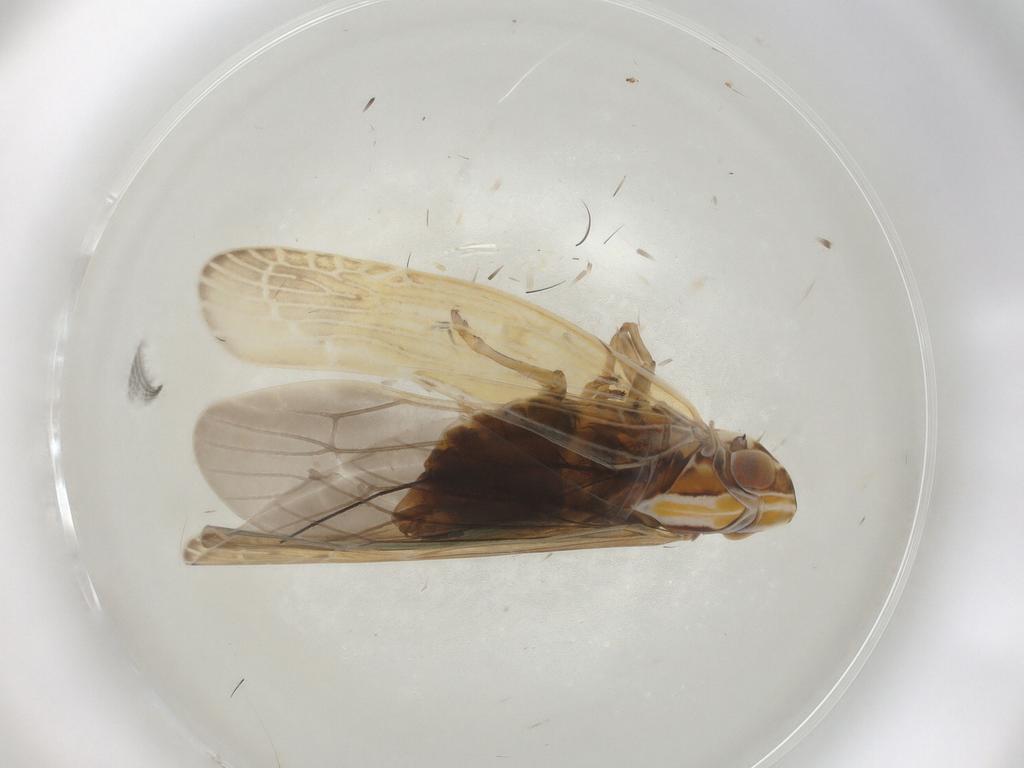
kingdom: Animalia
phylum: Arthropoda
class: Insecta
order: Hemiptera
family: Achilidae
